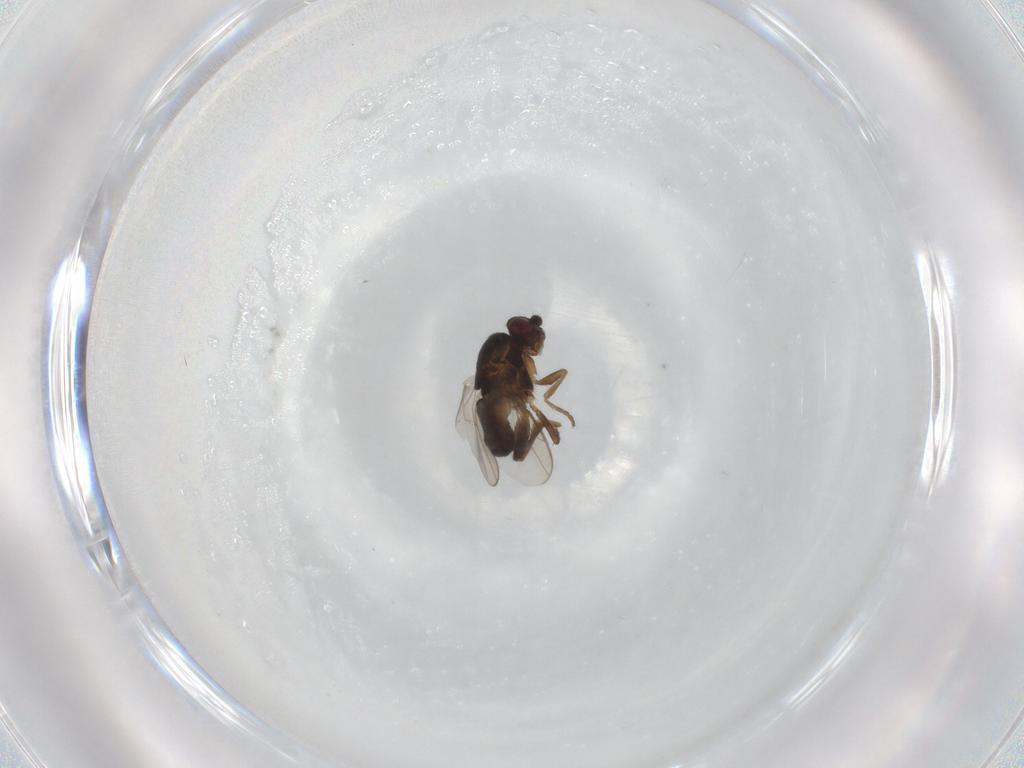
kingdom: Animalia
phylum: Arthropoda
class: Insecta
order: Diptera
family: Sphaeroceridae
